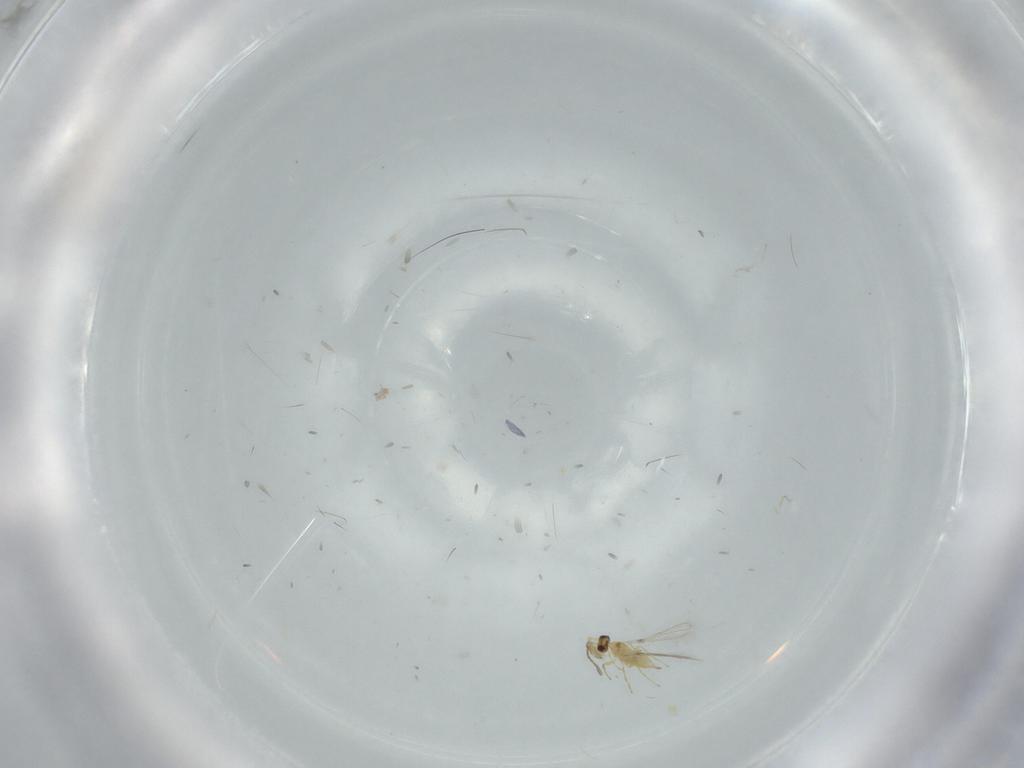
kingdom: Animalia
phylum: Arthropoda
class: Insecta
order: Hymenoptera
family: Mymaridae
